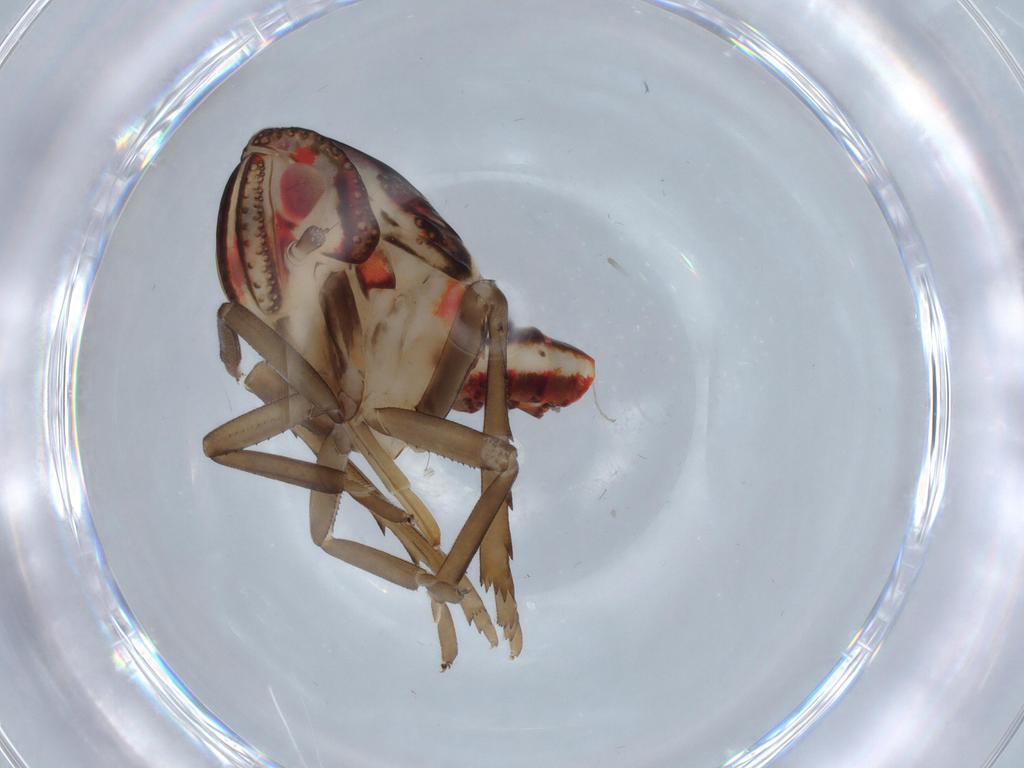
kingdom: Animalia
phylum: Arthropoda
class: Insecta
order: Hemiptera
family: Nogodinidae
